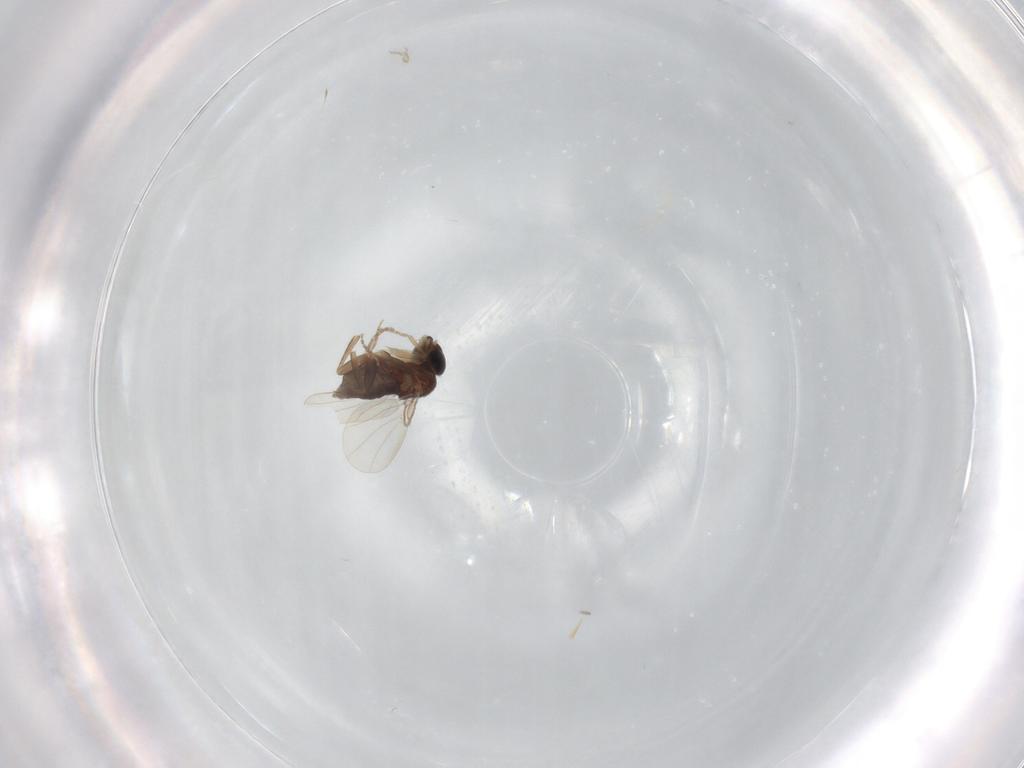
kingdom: Animalia
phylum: Arthropoda
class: Insecta
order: Diptera
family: Phoridae
